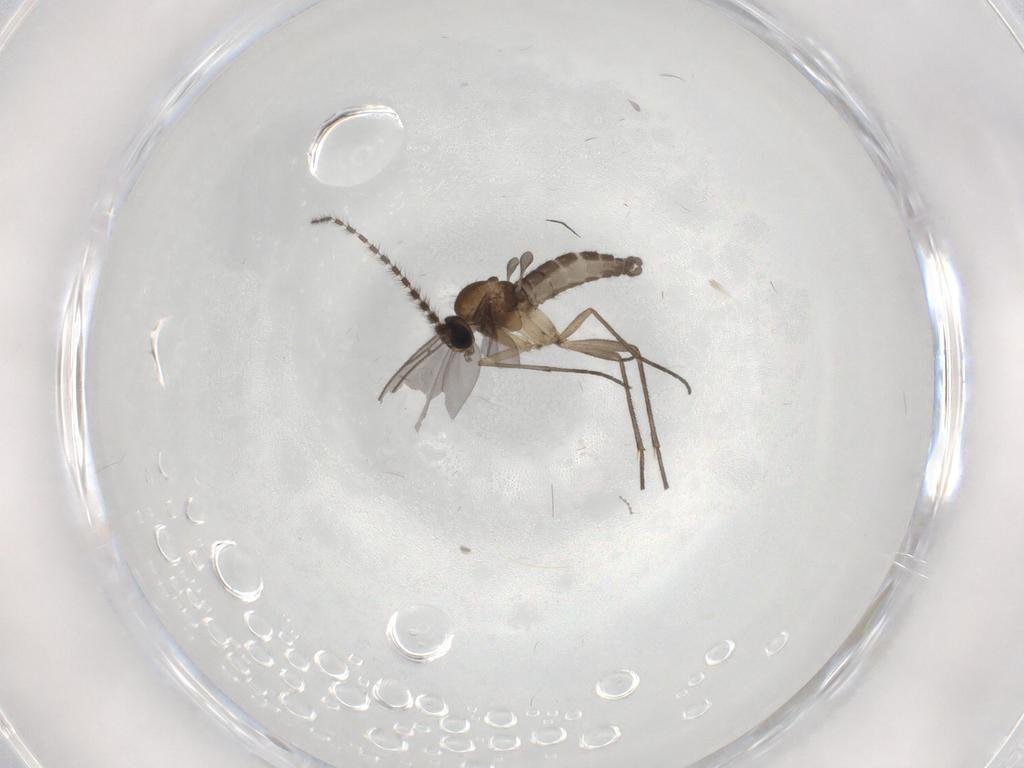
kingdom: Animalia
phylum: Arthropoda
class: Insecta
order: Diptera
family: Sciaridae
